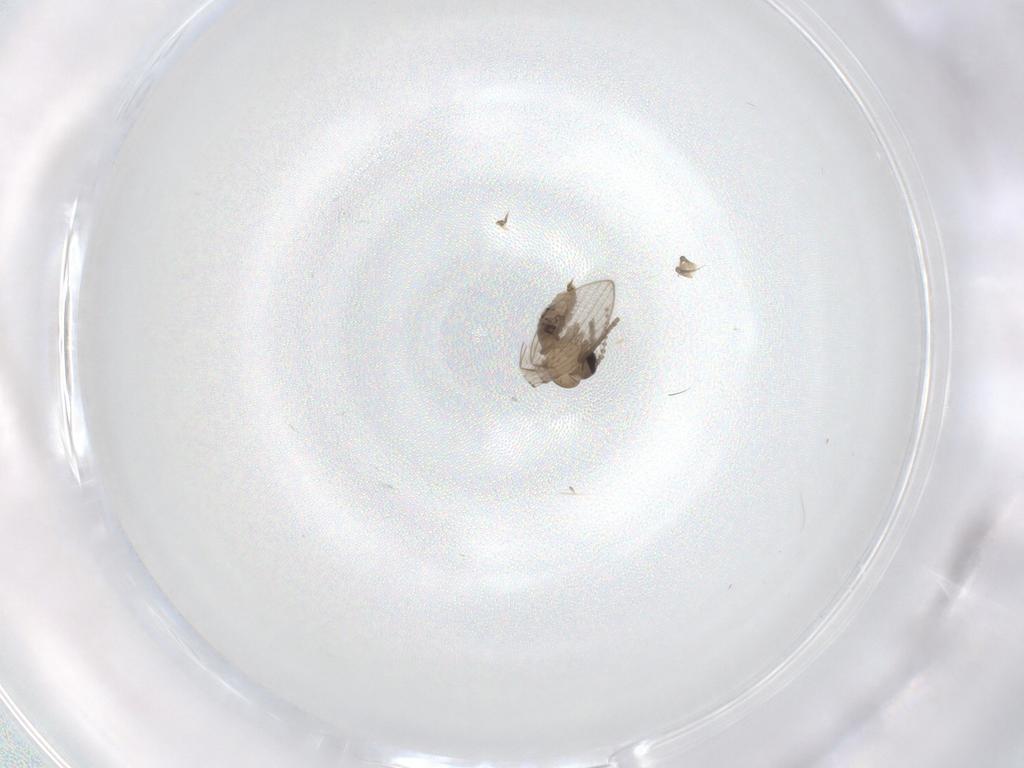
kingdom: Animalia
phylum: Arthropoda
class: Insecta
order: Diptera
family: Psychodidae
